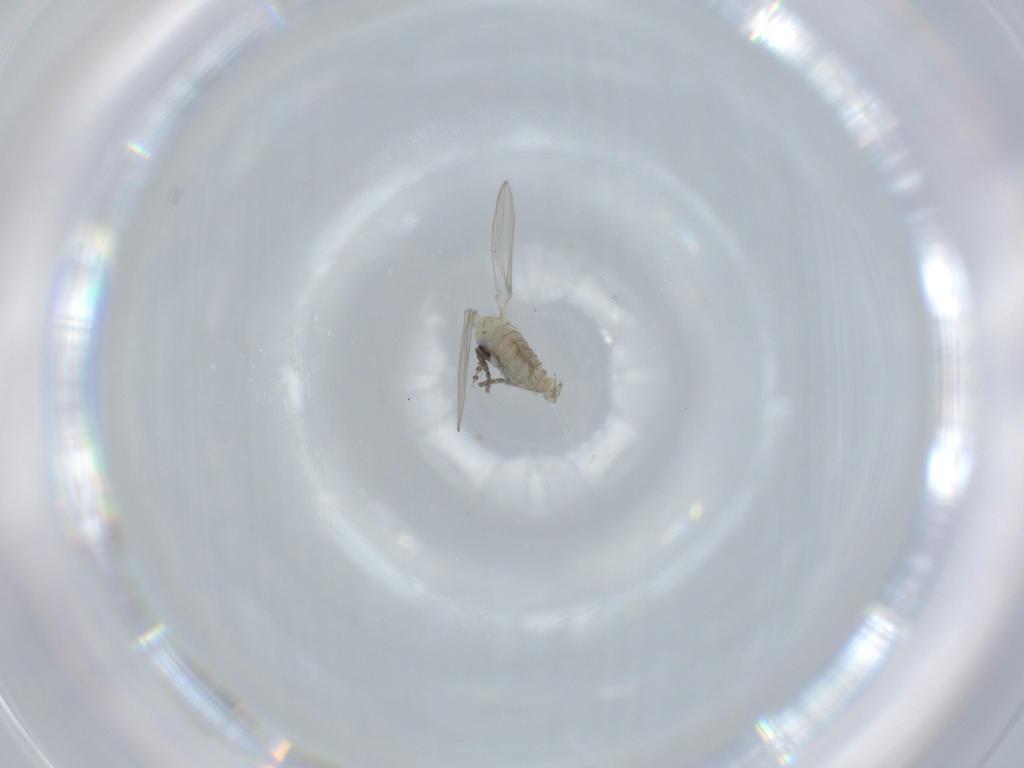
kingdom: Animalia
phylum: Arthropoda
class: Insecta
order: Diptera
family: Psychodidae
